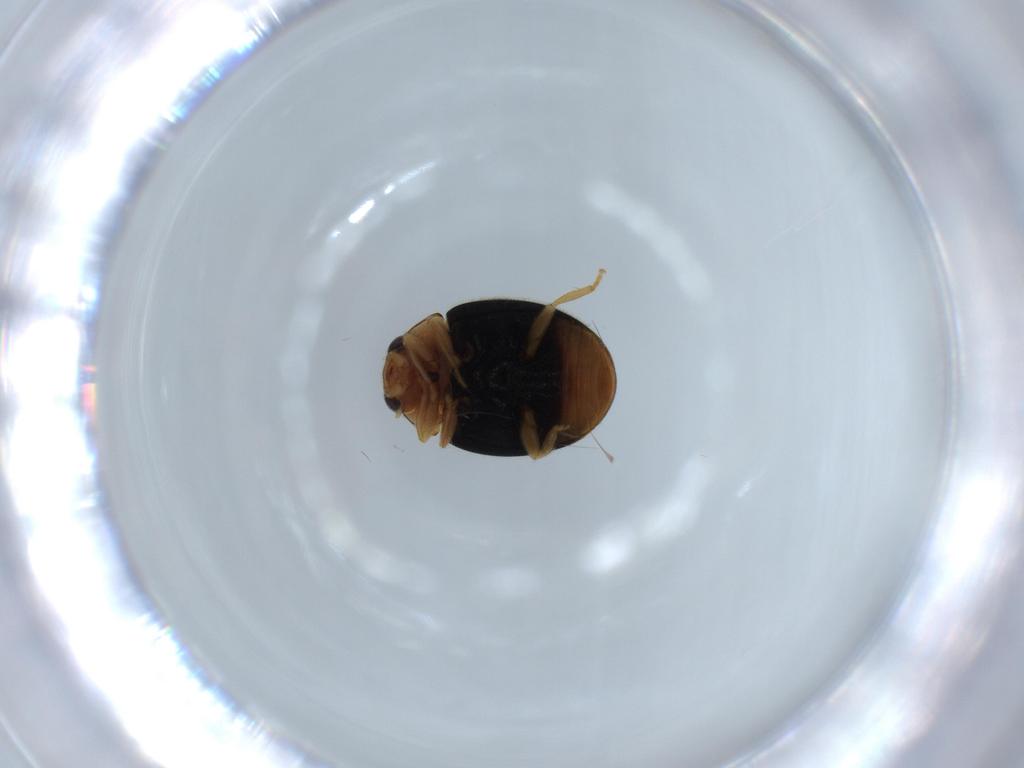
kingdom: Animalia
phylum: Arthropoda
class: Insecta
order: Coleoptera
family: Coccinellidae
